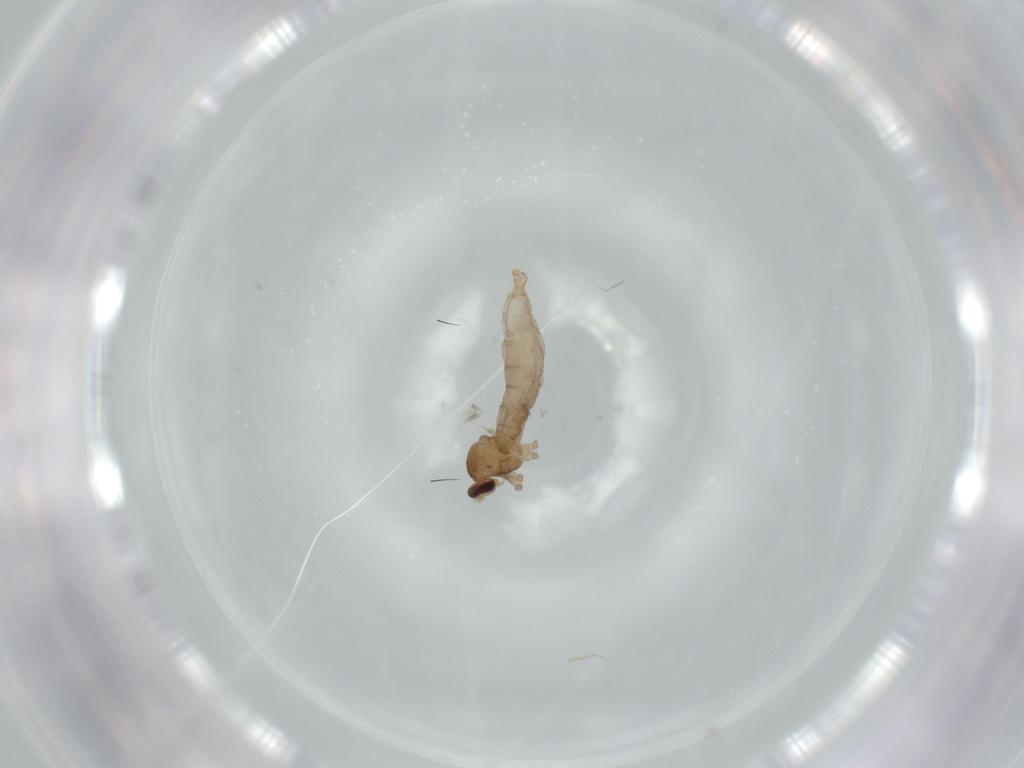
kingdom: Animalia
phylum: Arthropoda
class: Insecta
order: Diptera
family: Cecidomyiidae
